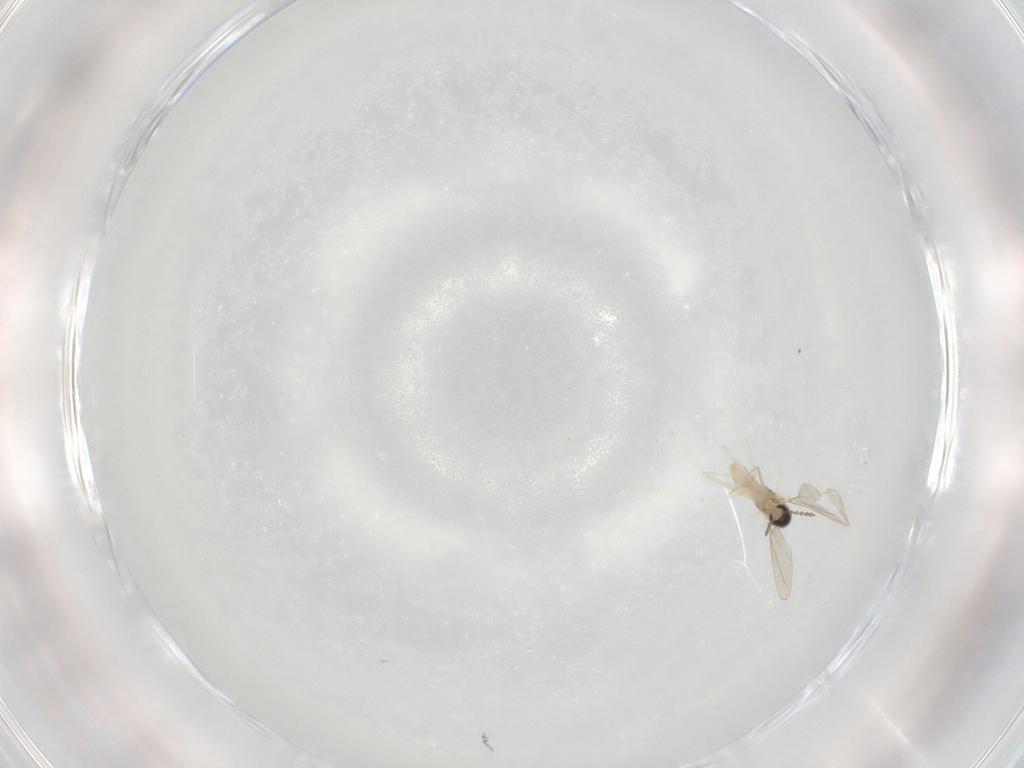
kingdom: Animalia
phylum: Arthropoda
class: Insecta
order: Diptera
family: Cecidomyiidae
